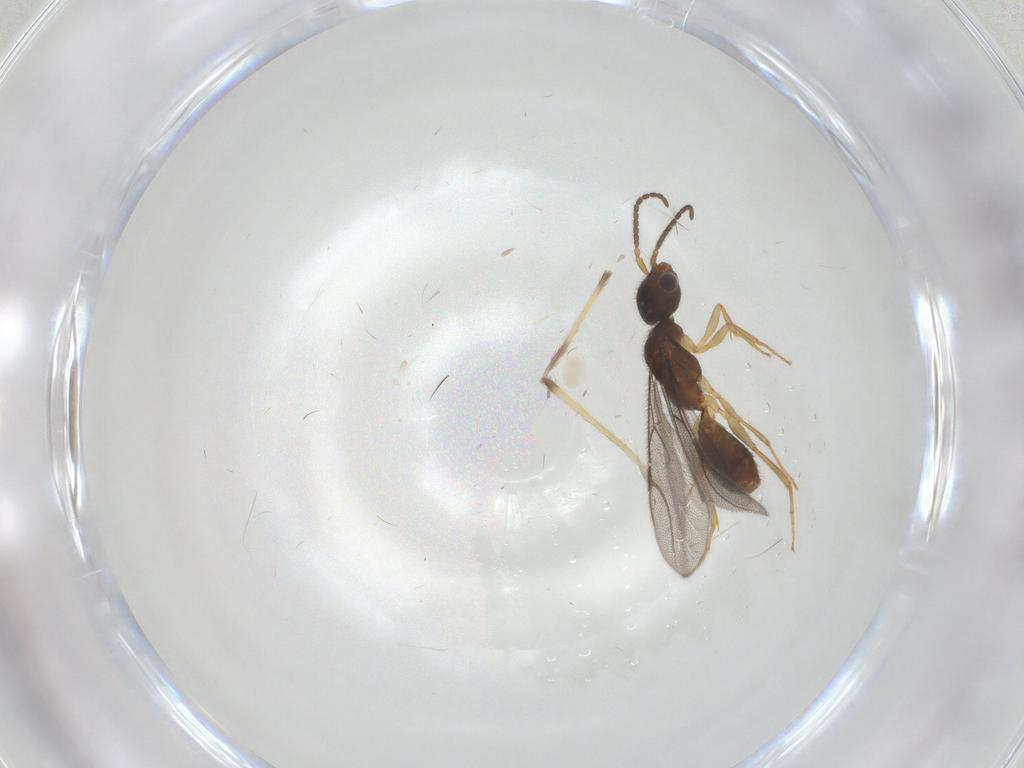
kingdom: Animalia
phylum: Arthropoda
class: Insecta
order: Hymenoptera
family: Bethylidae
